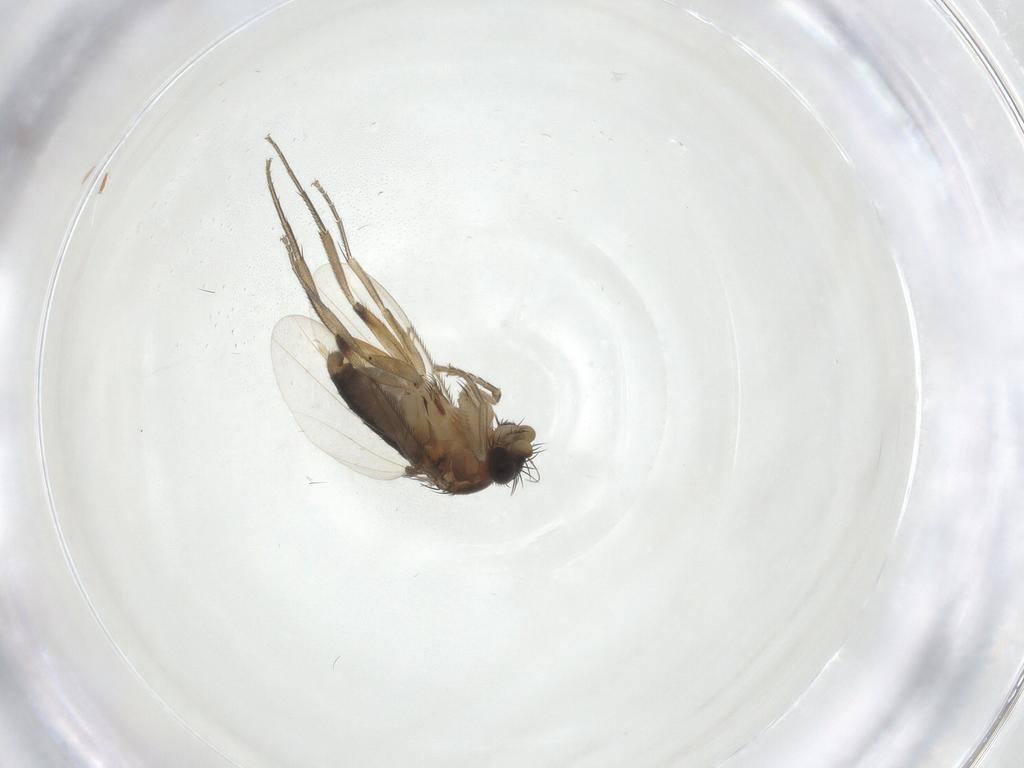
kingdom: Animalia
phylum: Arthropoda
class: Insecta
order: Diptera
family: Phoridae
